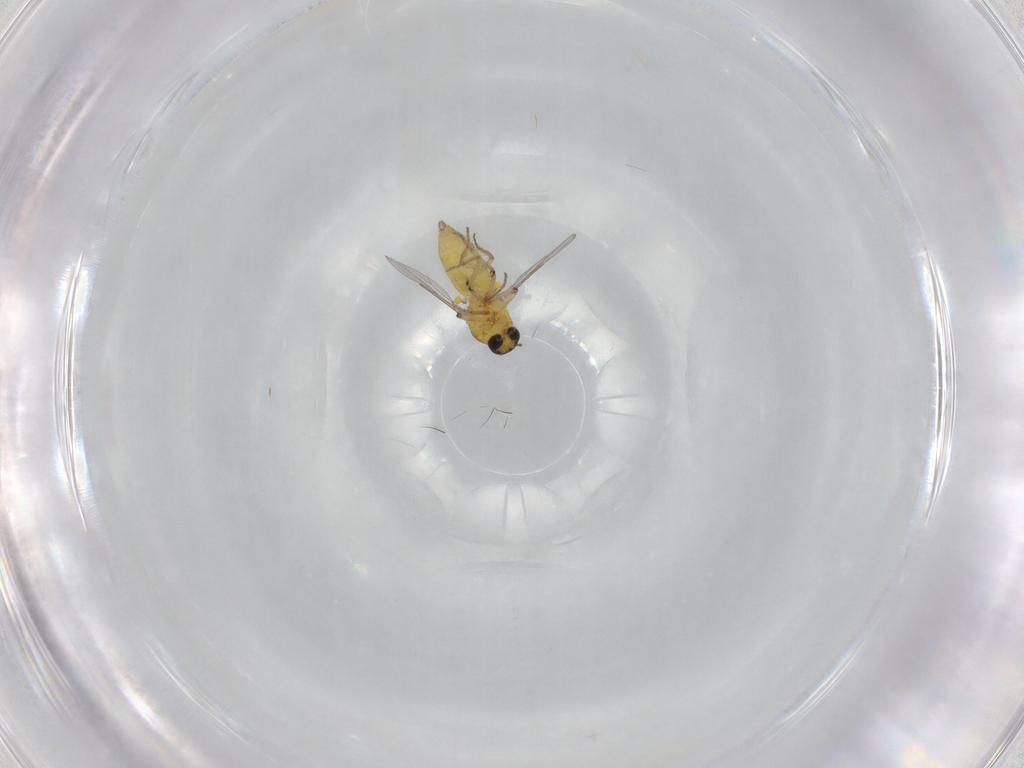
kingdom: Animalia
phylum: Arthropoda
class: Insecta
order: Diptera
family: Ceratopogonidae
